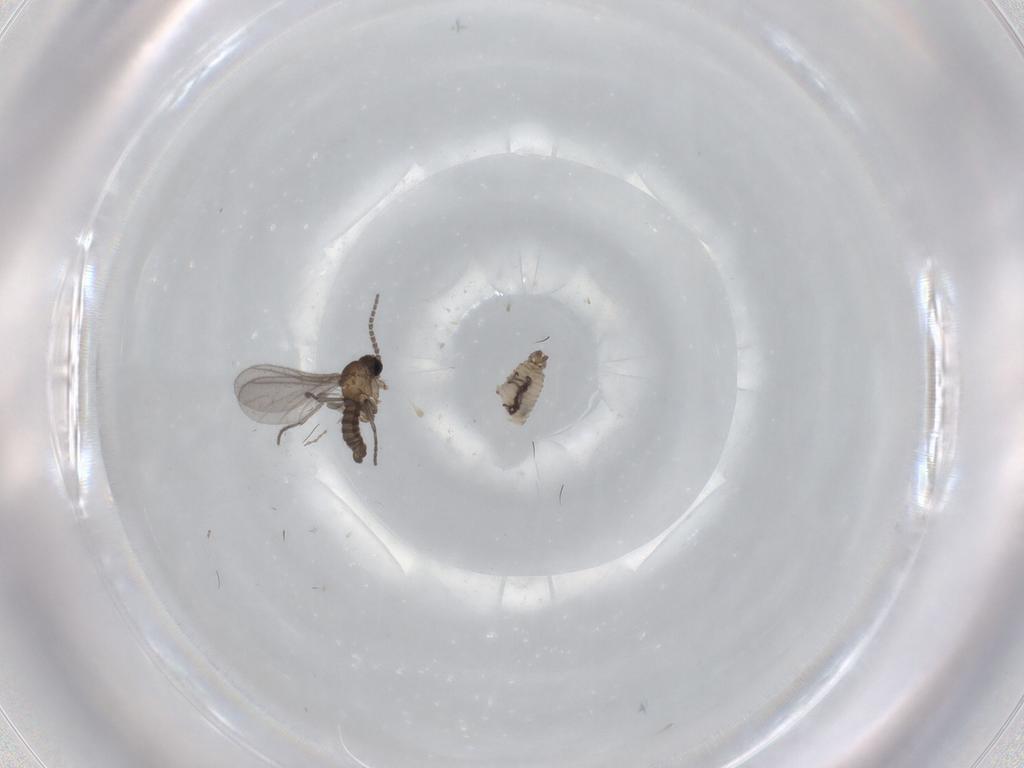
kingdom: Animalia
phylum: Arthropoda
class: Insecta
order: Diptera
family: Sciaridae
